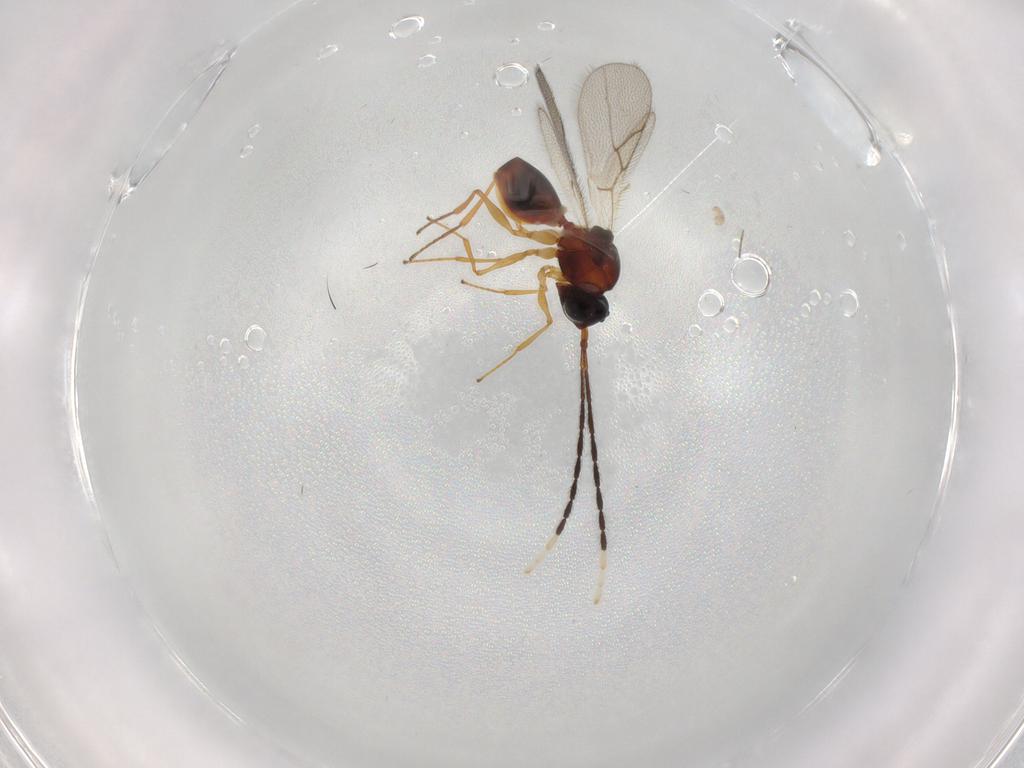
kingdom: Animalia
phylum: Arthropoda
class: Insecta
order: Hymenoptera
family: Figitidae
